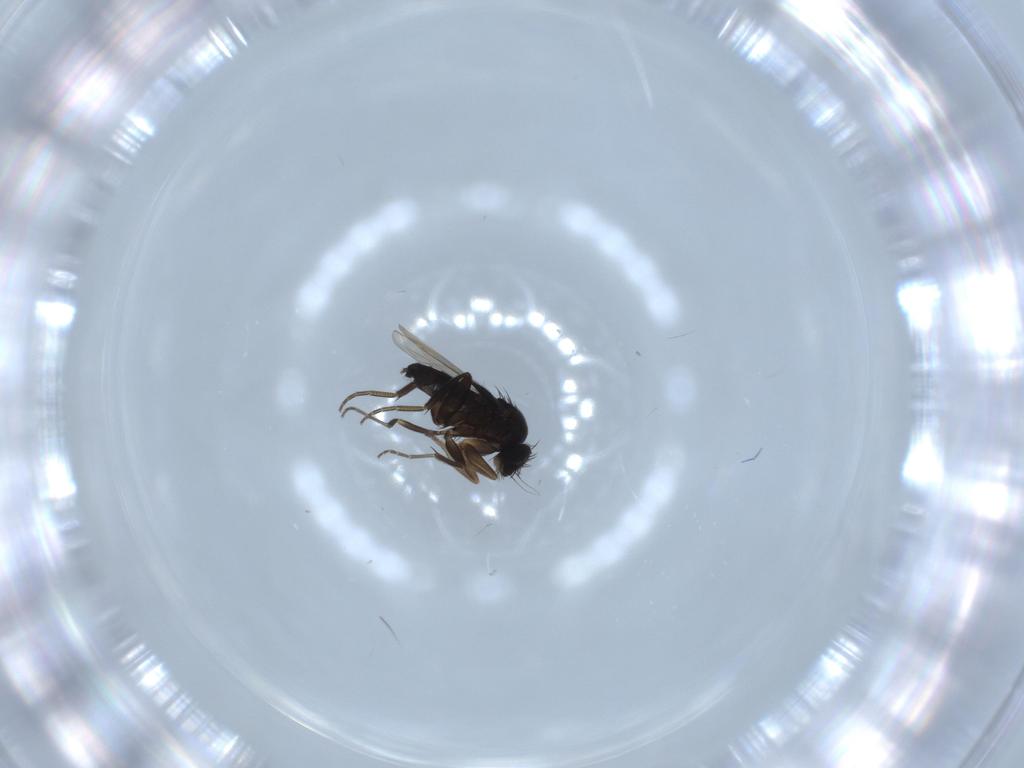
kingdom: Animalia
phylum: Arthropoda
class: Insecta
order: Diptera
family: Phoridae
